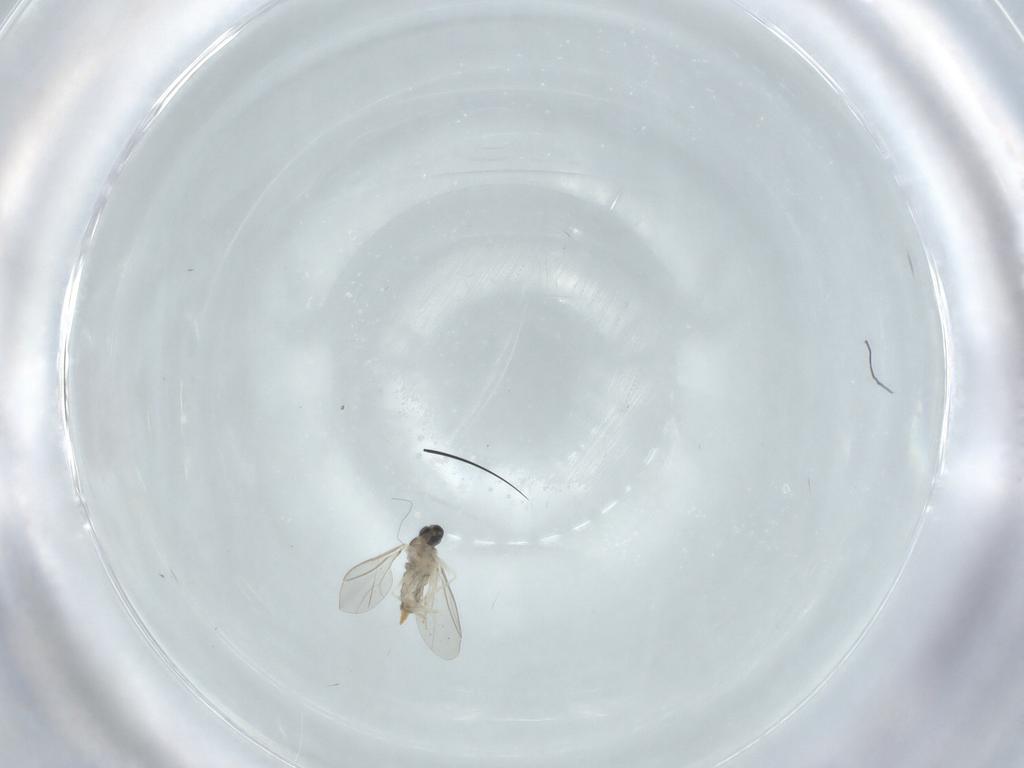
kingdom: Animalia
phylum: Arthropoda
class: Insecta
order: Diptera
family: Cecidomyiidae
